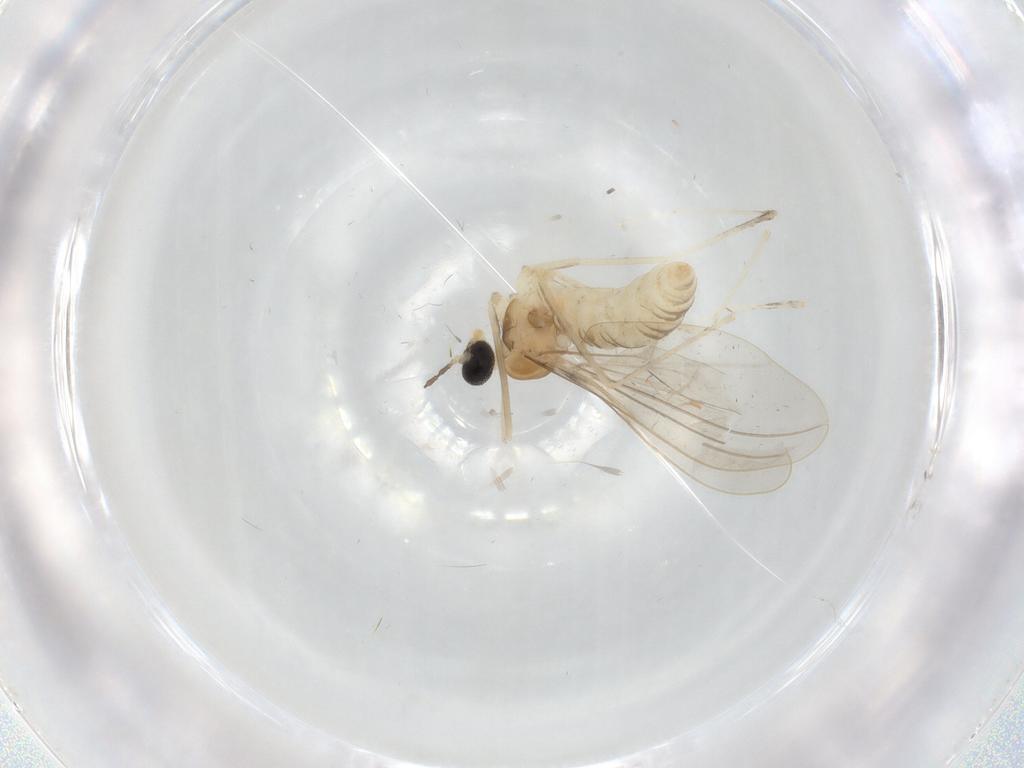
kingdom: Animalia
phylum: Arthropoda
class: Insecta
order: Diptera
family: Cecidomyiidae
